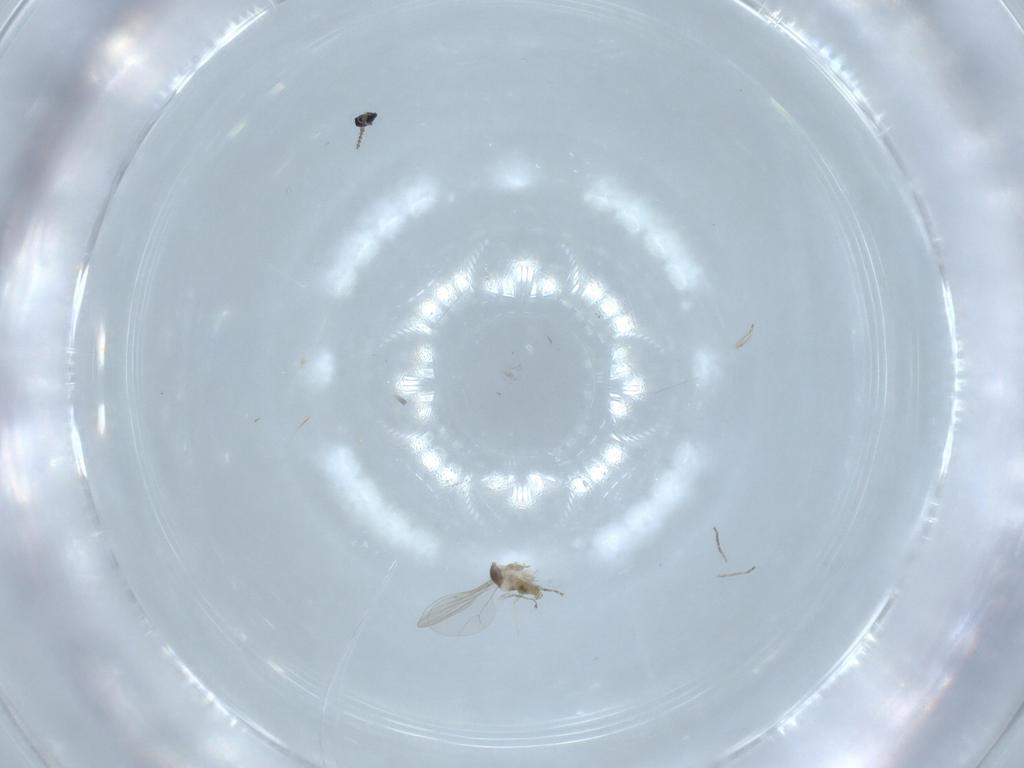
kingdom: Animalia
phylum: Arthropoda
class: Insecta
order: Diptera
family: Cecidomyiidae
